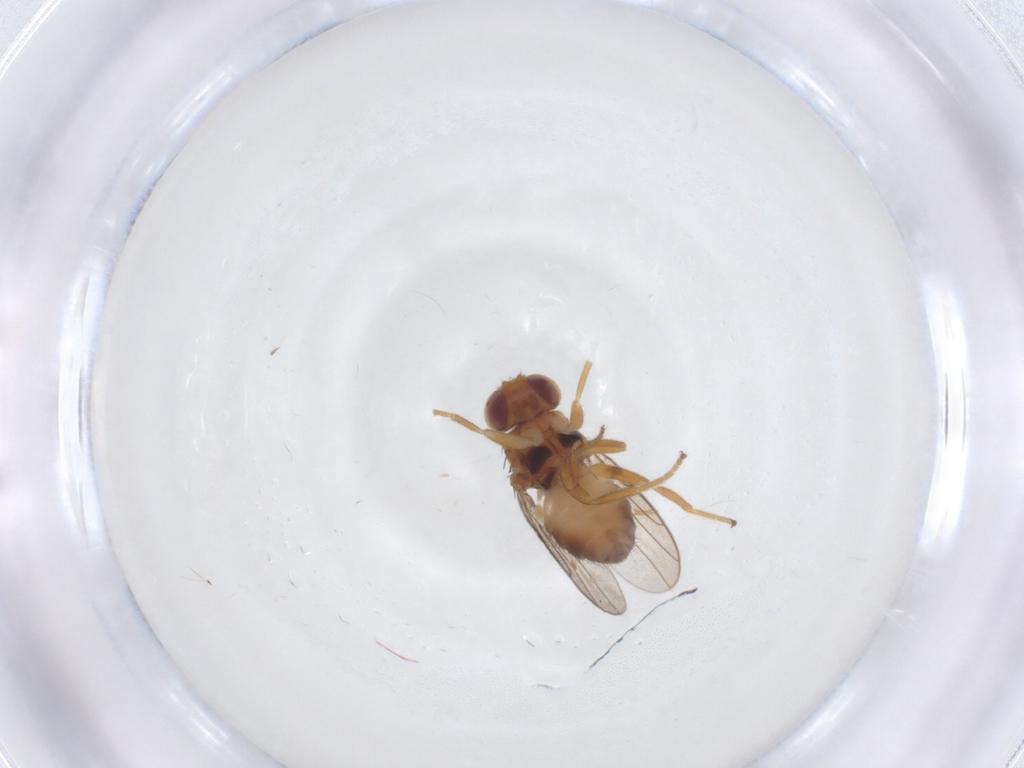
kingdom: Animalia
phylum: Arthropoda
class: Insecta
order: Diptera
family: Chloropidae
